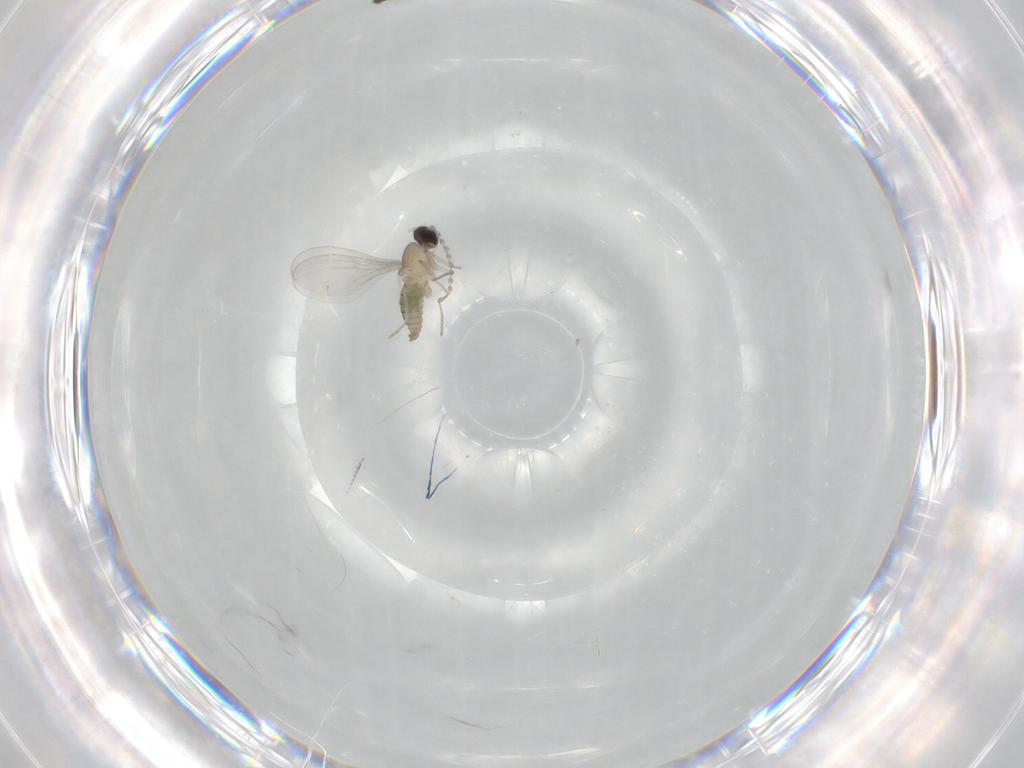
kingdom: Animalia
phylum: Arthropoda
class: Insecta
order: Diptera
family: Cecidomyiidae
